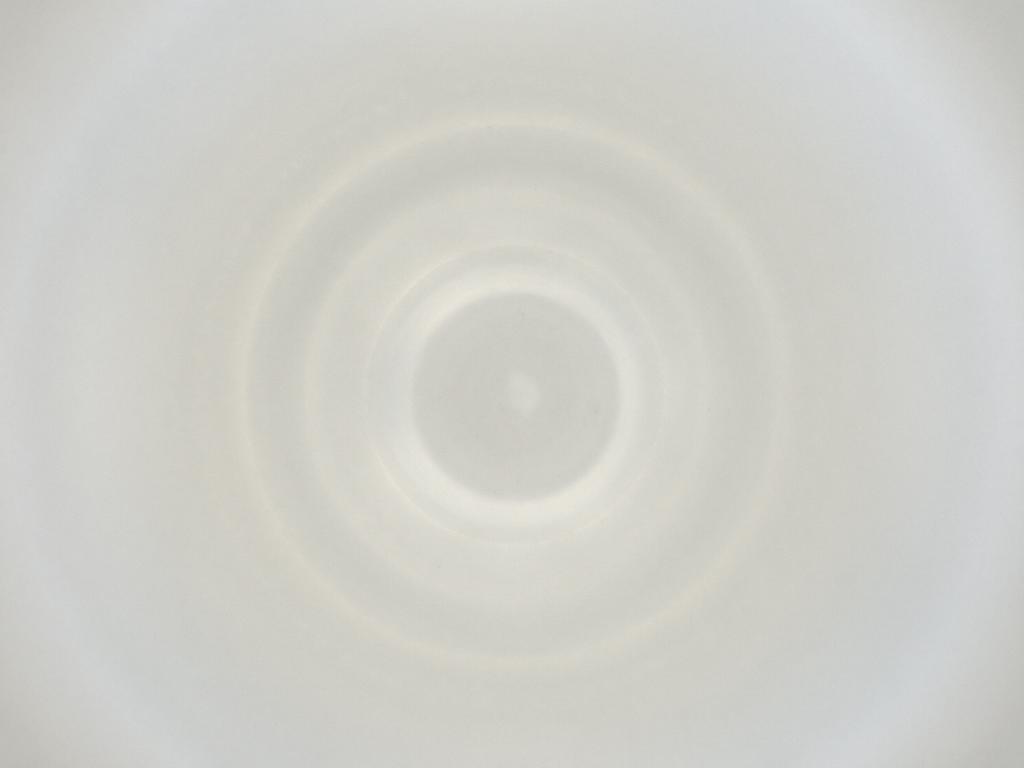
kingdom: Animalia
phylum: Arthropoda
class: Insecta
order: Diptera
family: Cecidomyiidae
